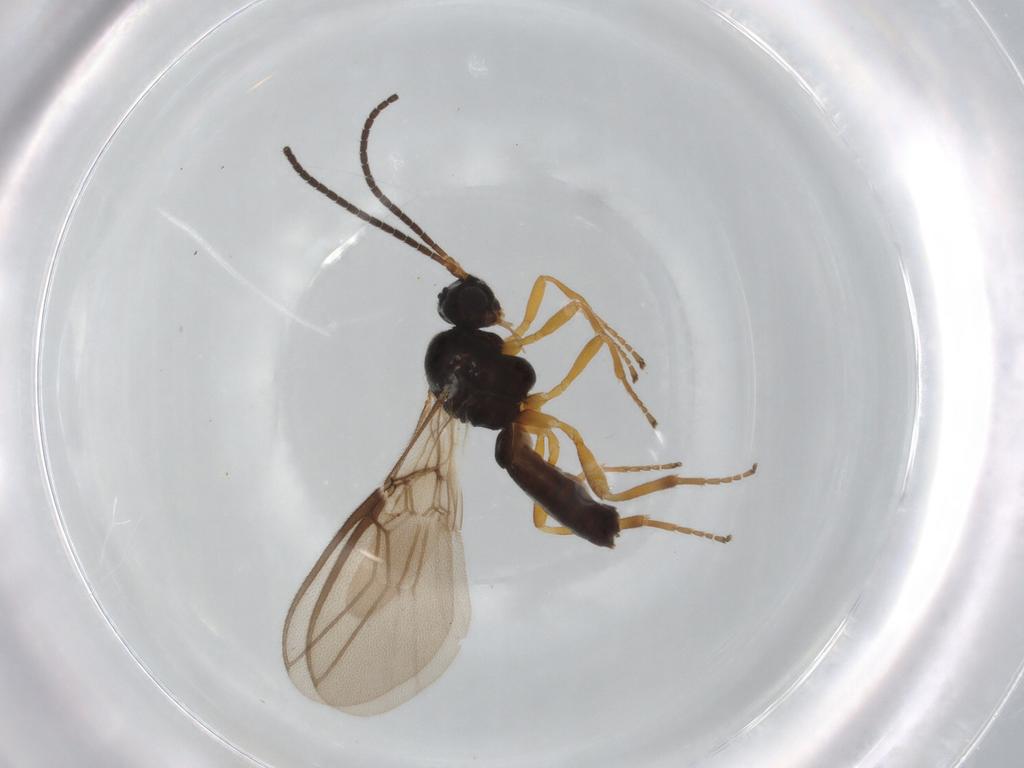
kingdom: Animalia
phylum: Arthropoda
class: Insecta
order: Hymenoptera
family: Braconidae
